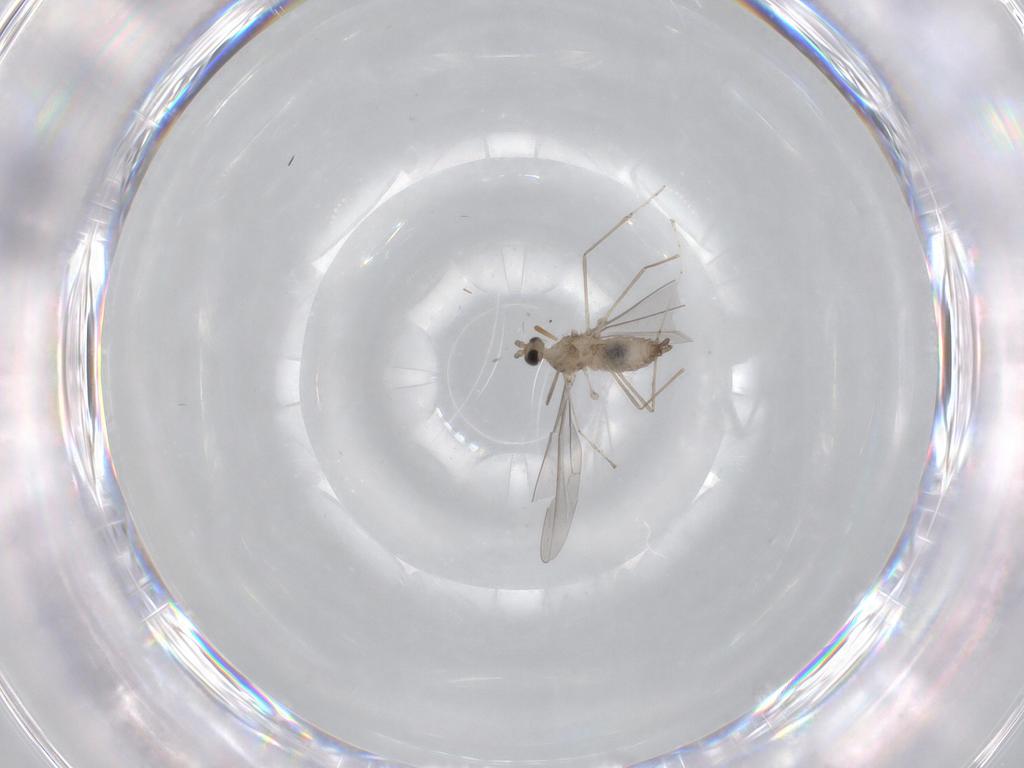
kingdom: Animalia
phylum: Arthropoda
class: Insecta
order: Diptera
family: Cecidomyiidae
